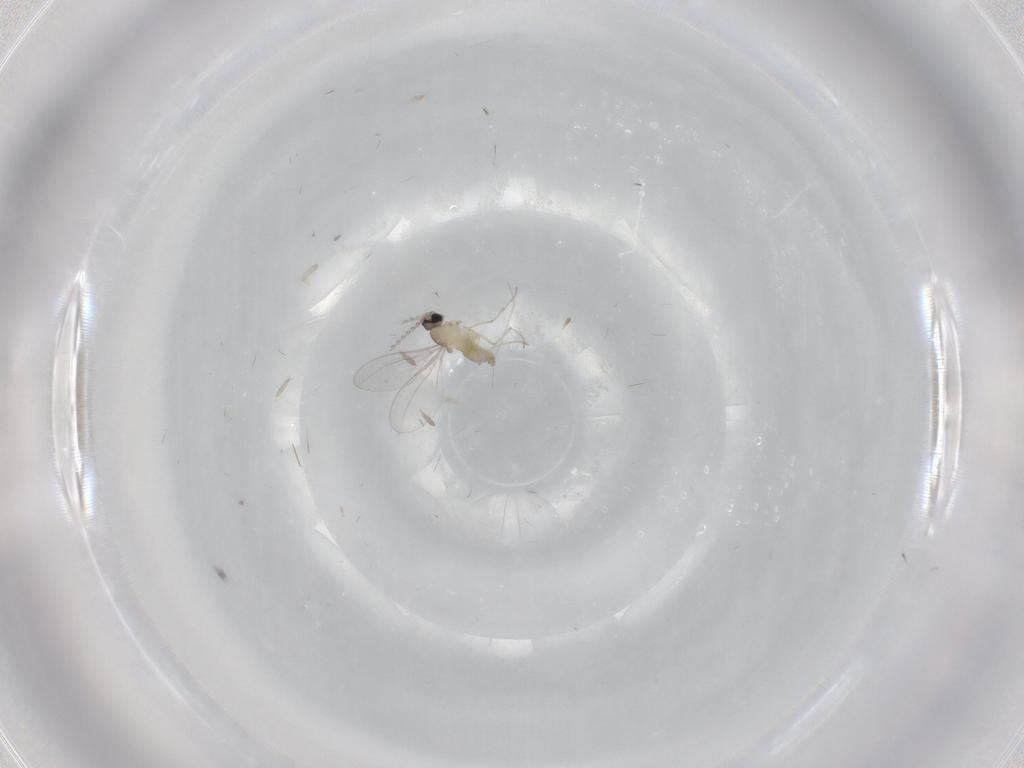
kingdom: Animalia
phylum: Arthropoda
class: Insecta
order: Diptera
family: Cecidomyiidae
